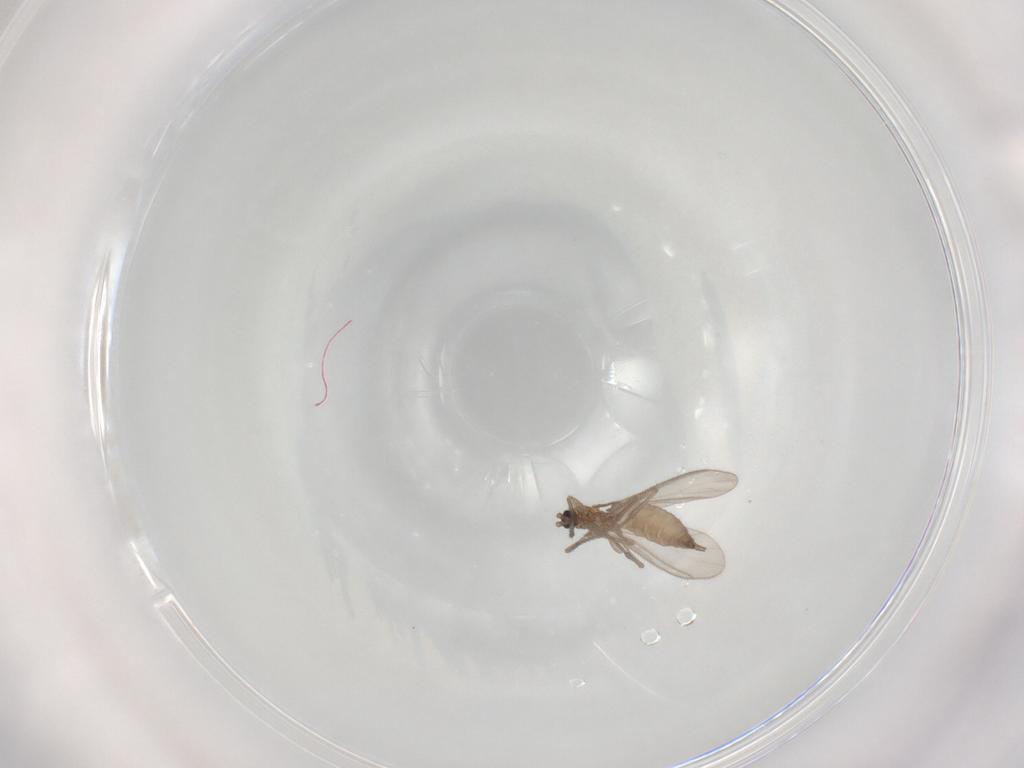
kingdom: Animalia
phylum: Arthropoda
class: Insecta
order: Diptera
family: Sciaridae
